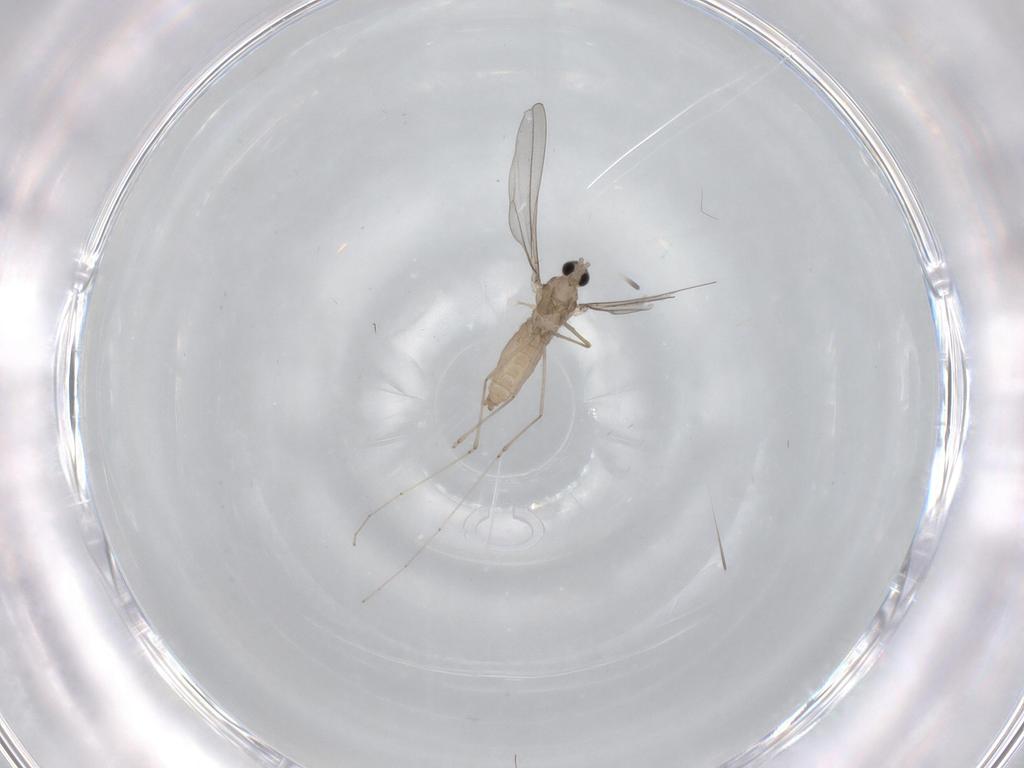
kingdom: Animalia
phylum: Arthropoda
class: Insecta
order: Diptera
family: Cecidomyiidae
